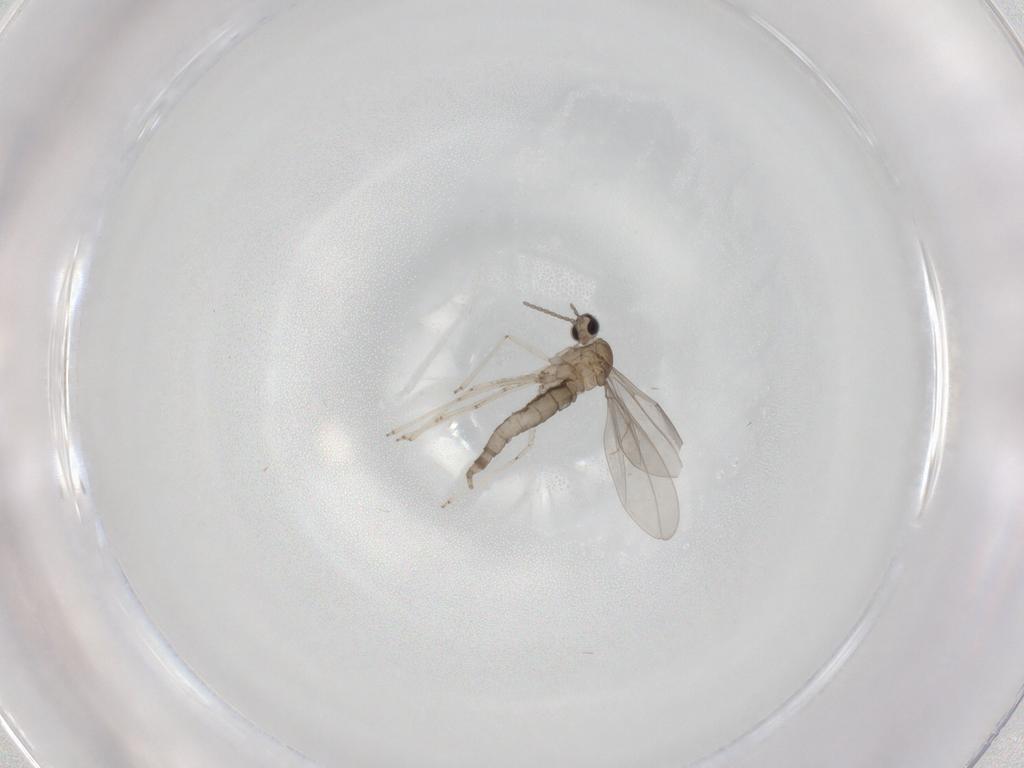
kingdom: Animalia
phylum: Arthropoda
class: Insecta
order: Diptera
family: Cecidomyiidae
